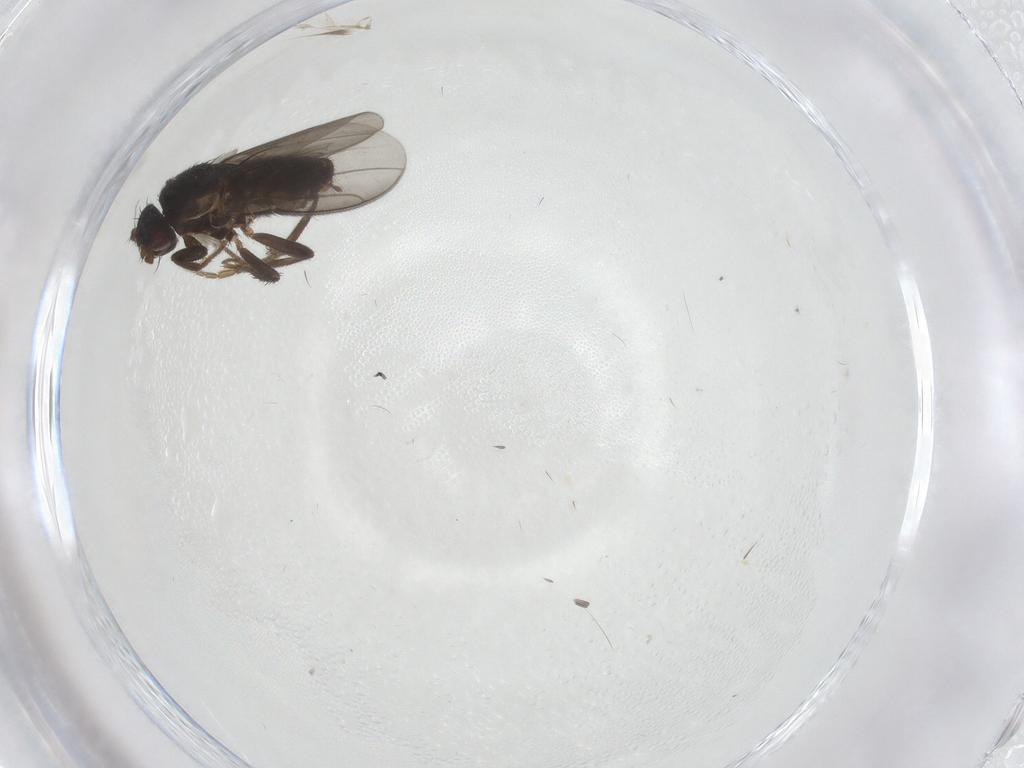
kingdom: Animalia
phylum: Arthropoda
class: Insecta
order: Diptera
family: Sphaeroceridae
